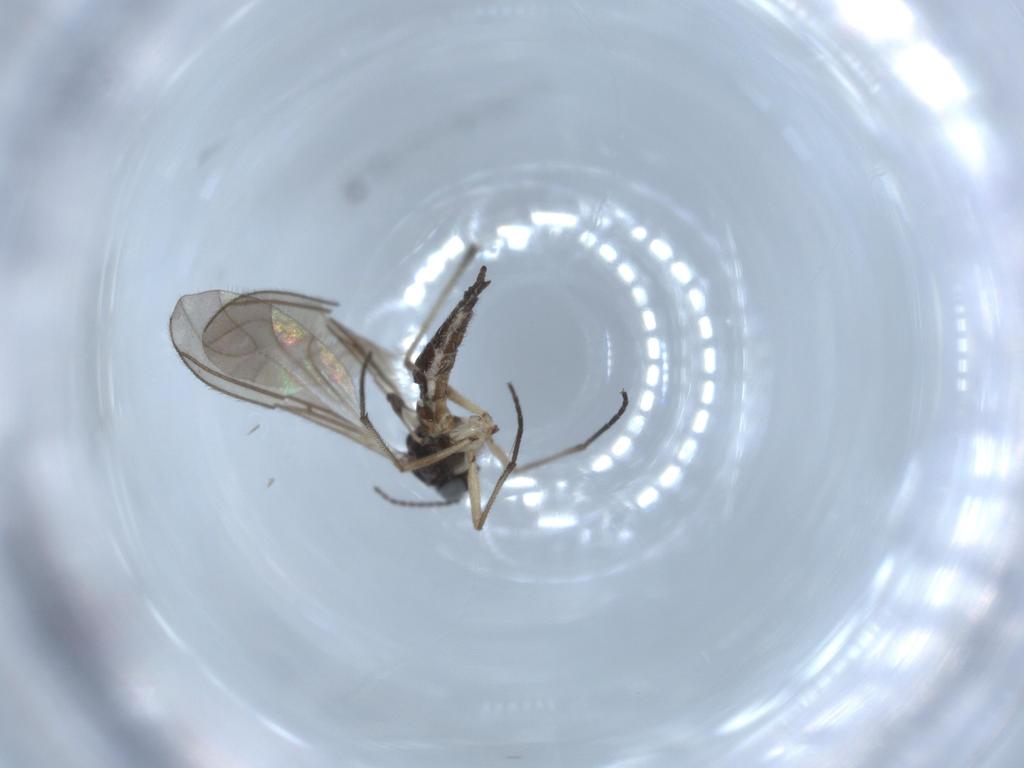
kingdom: Animalia
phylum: Arthropoda
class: Insecta
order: Diptera
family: Sciaridae
